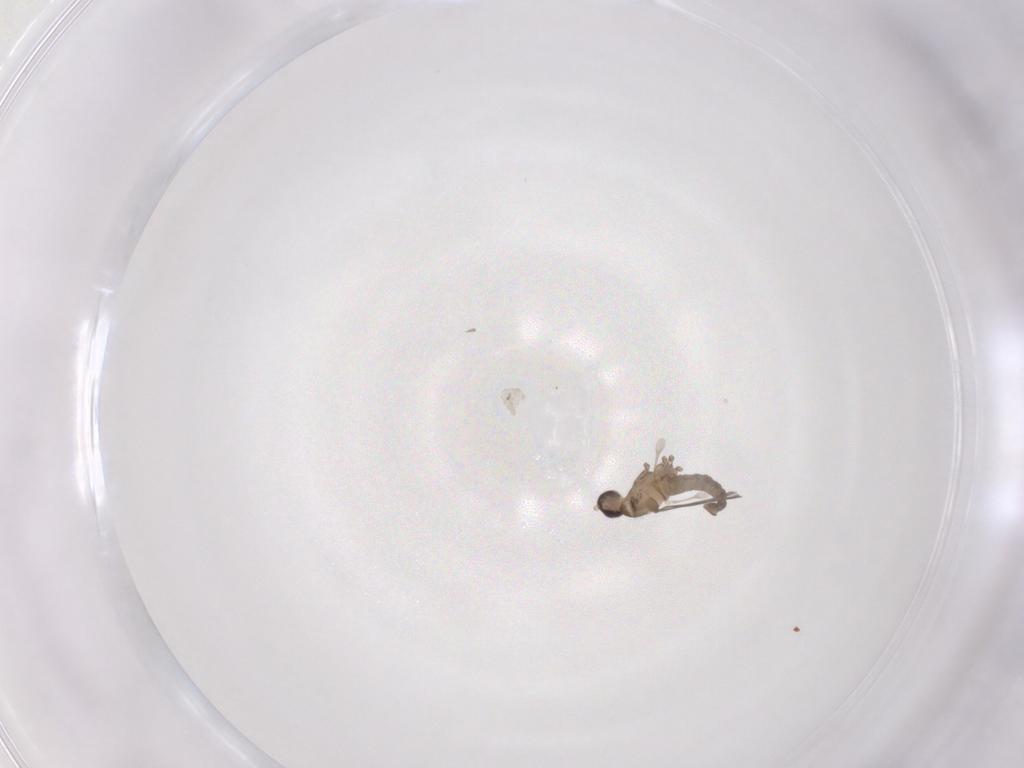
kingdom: Animalia
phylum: Arthropoda
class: Insecta
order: Diptera
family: Cecidomyiidae
